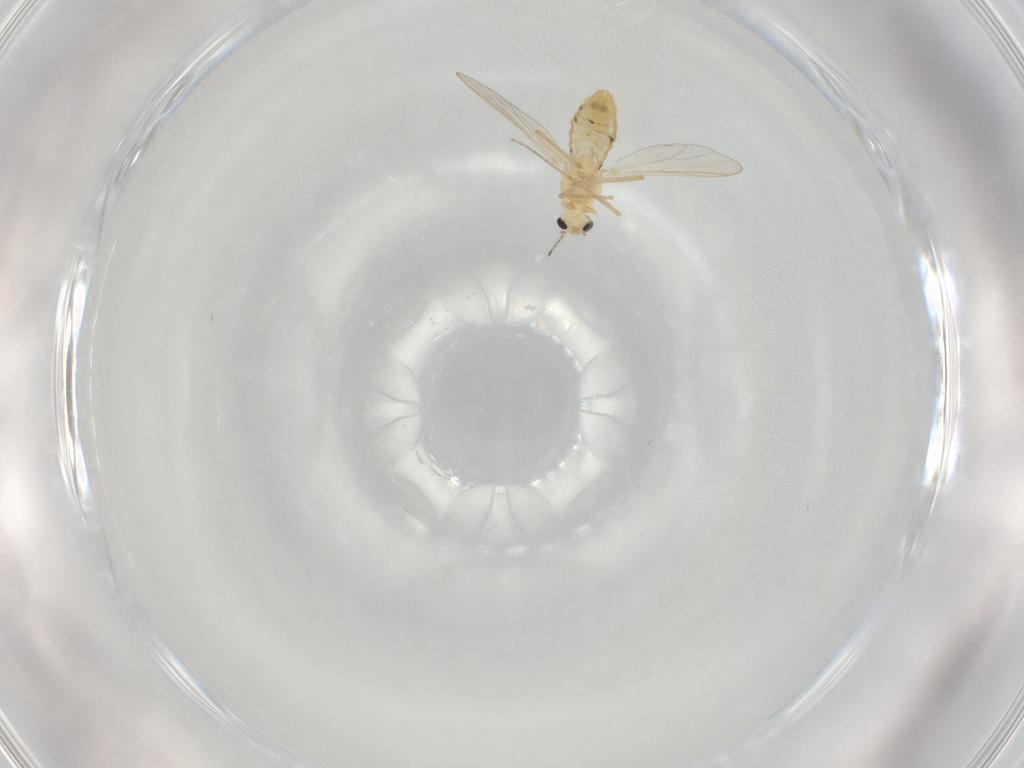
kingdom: Animalia
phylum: Arthropoda
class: Insecta
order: Diptera
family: Chironomidae
